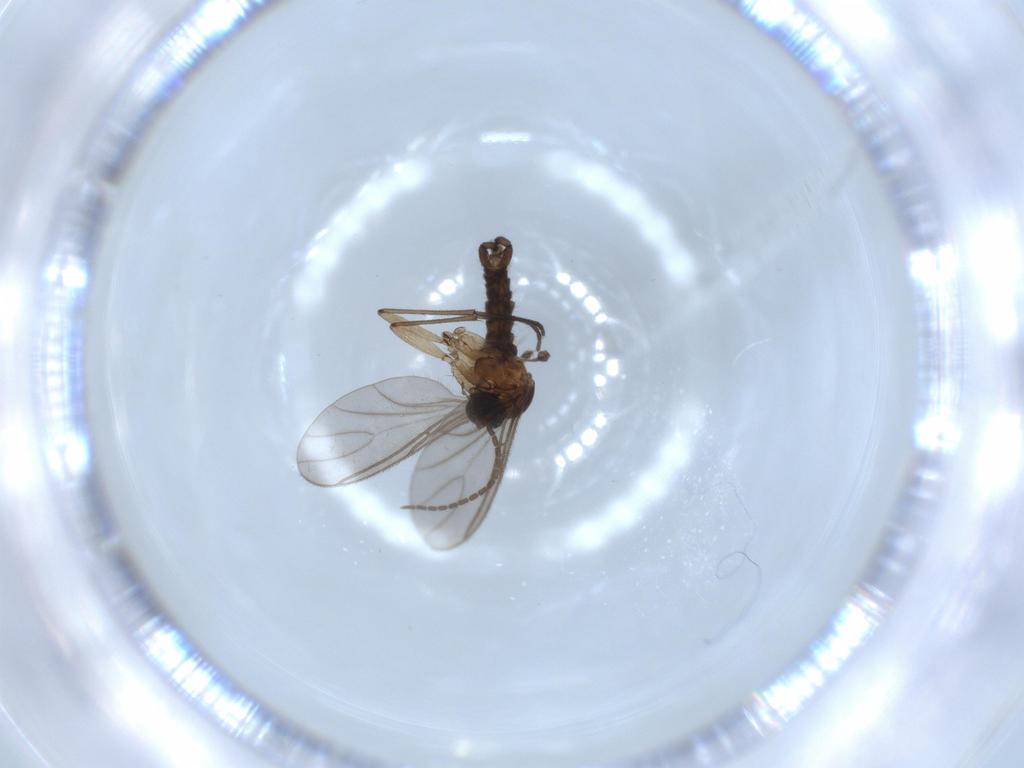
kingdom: Animalia
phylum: Arthropoda
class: Insecta
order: Diptera
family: Sciaridae
